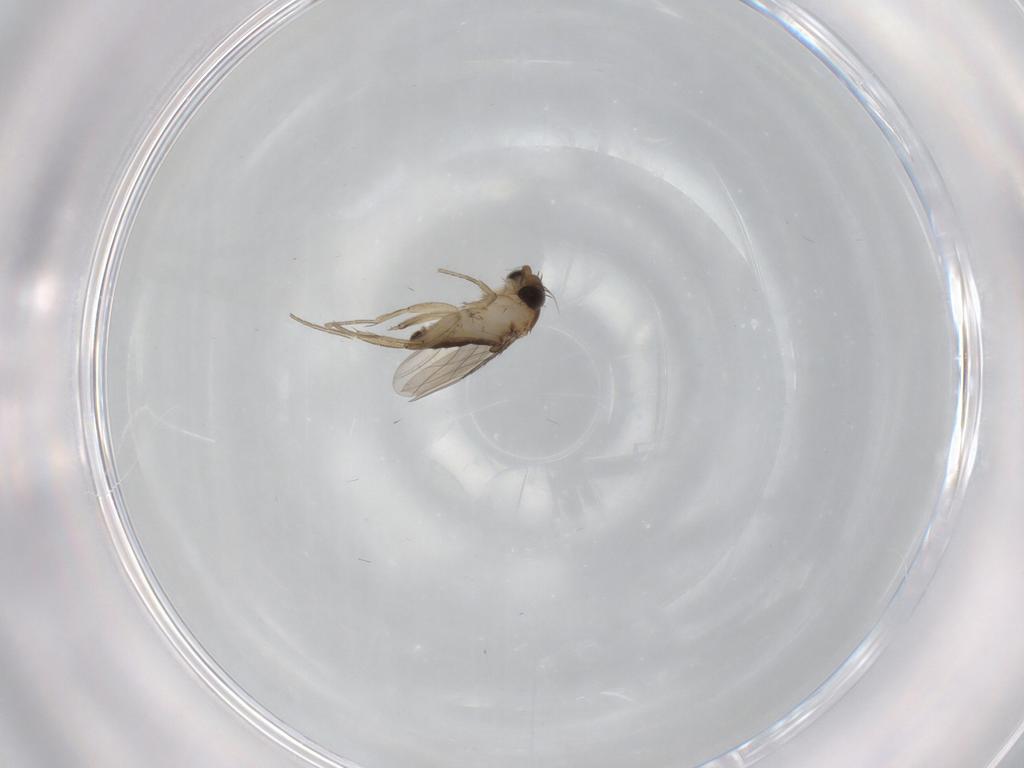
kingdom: Animalia
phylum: Arthropoda
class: Insecta
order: Diptera
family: Phoridae
